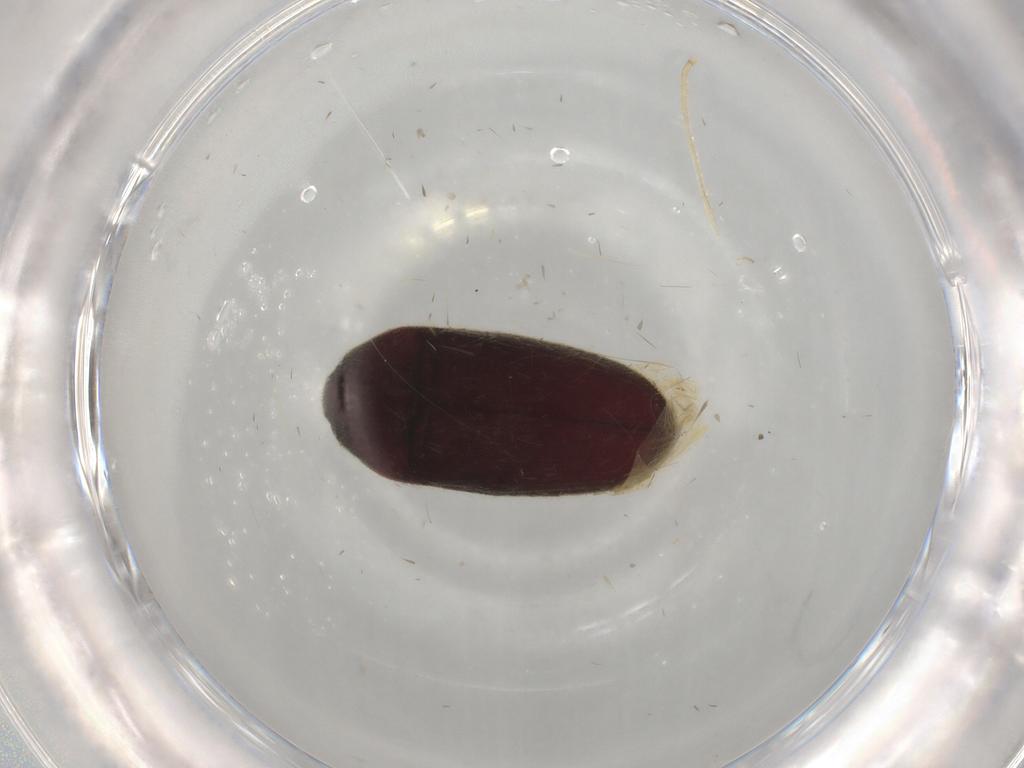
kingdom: Animalia
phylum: Arthropoda
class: Insecta
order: Coleoptera
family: Throscidae
